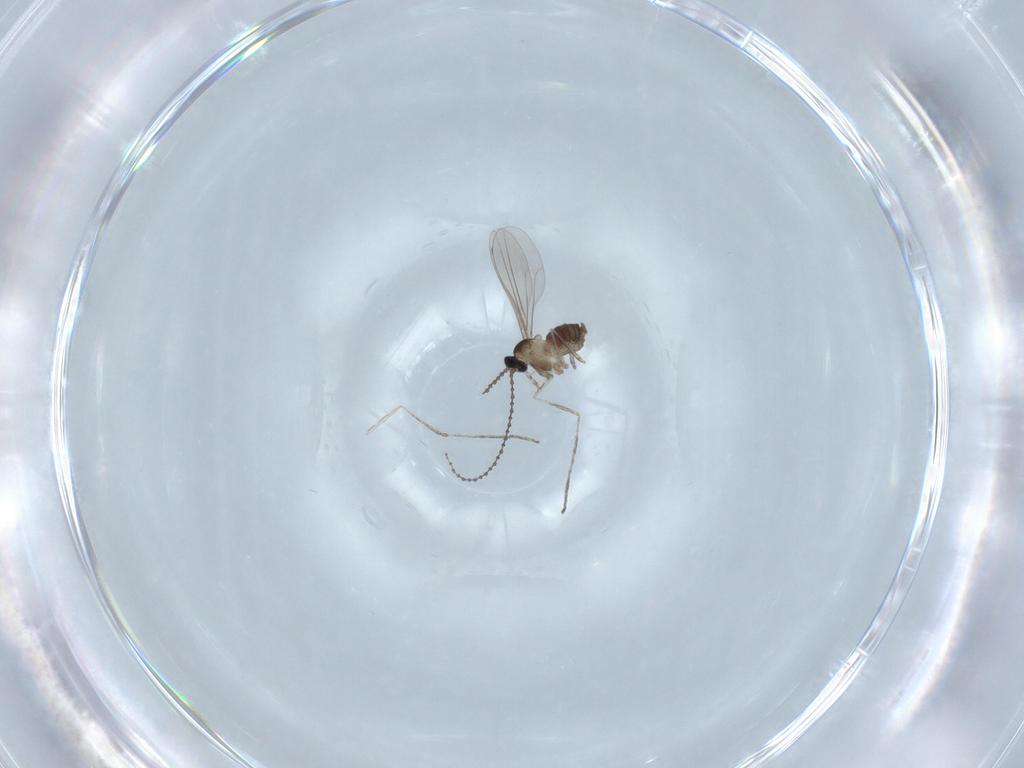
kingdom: Animalia
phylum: Arthropoda
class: Insecta
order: Diptera
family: Cecidomyiidae
